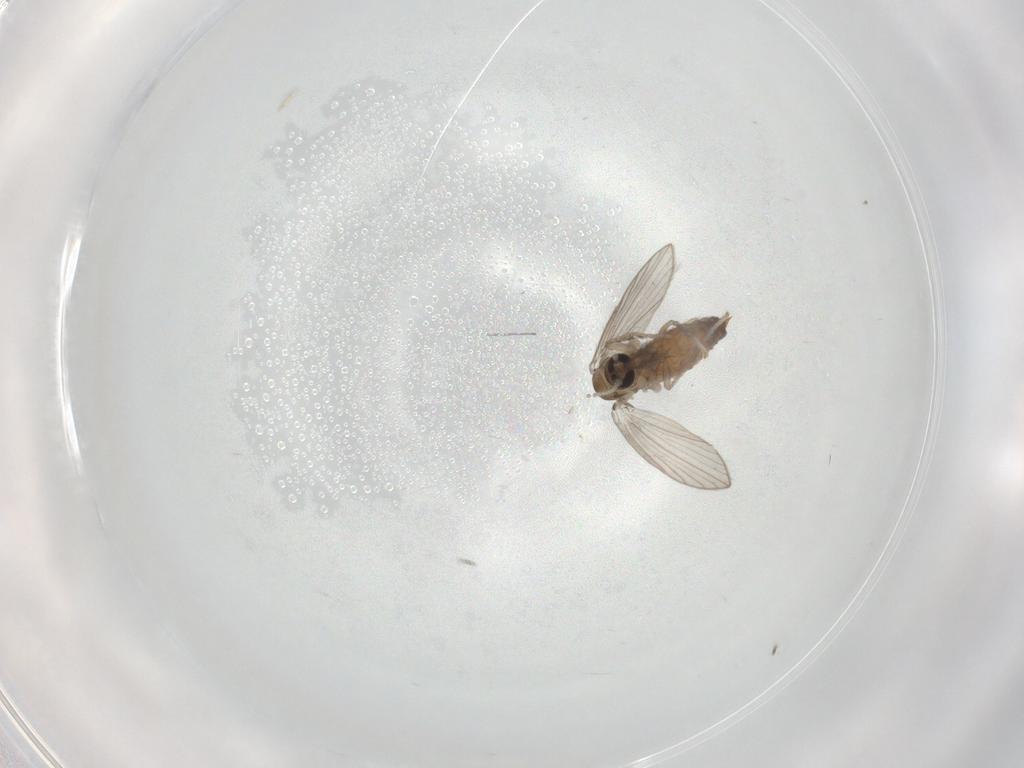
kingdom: Animalia
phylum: Arthropoda
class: Insecta
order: Diptera
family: Psychodidae
